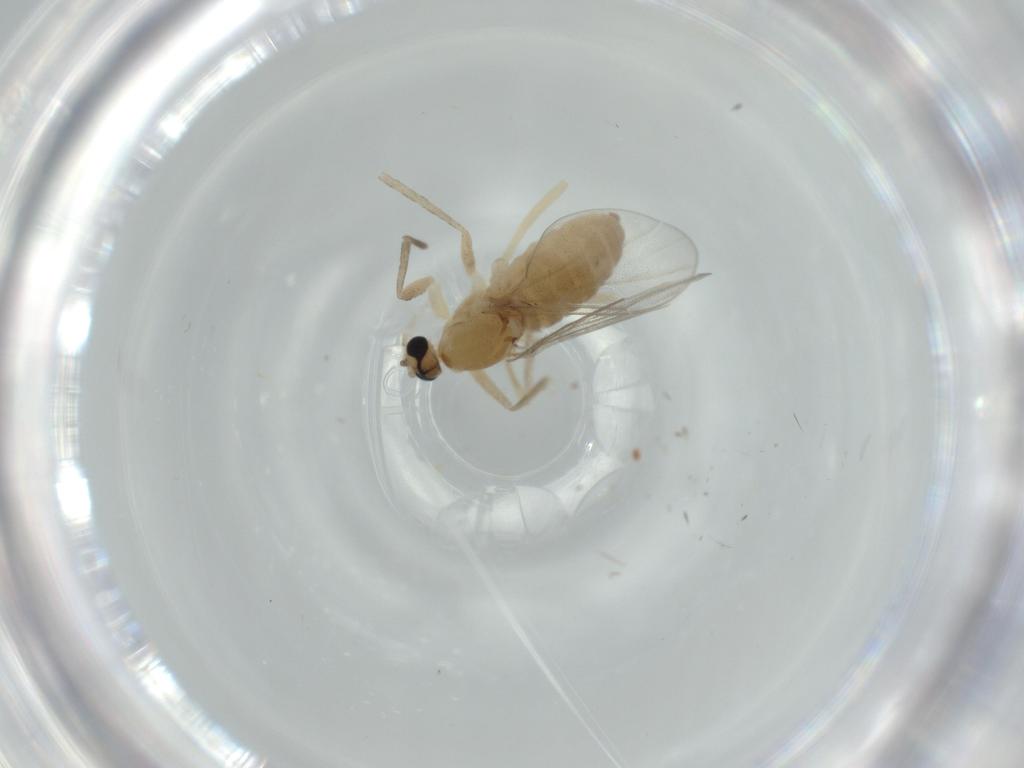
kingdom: Animalia
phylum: Arthropoda
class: Insecta
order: Diptera
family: Cecidomyiidae
